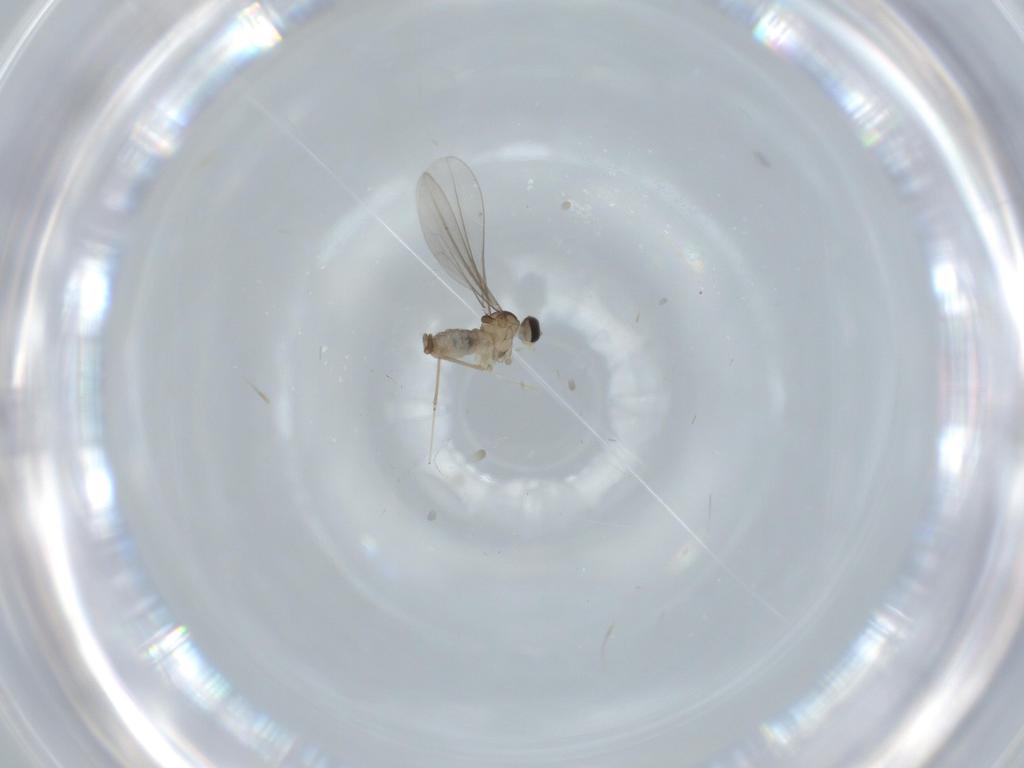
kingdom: Animalia
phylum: Arthropoda
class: Insecta
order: Diptera
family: Cecidomyiidae
